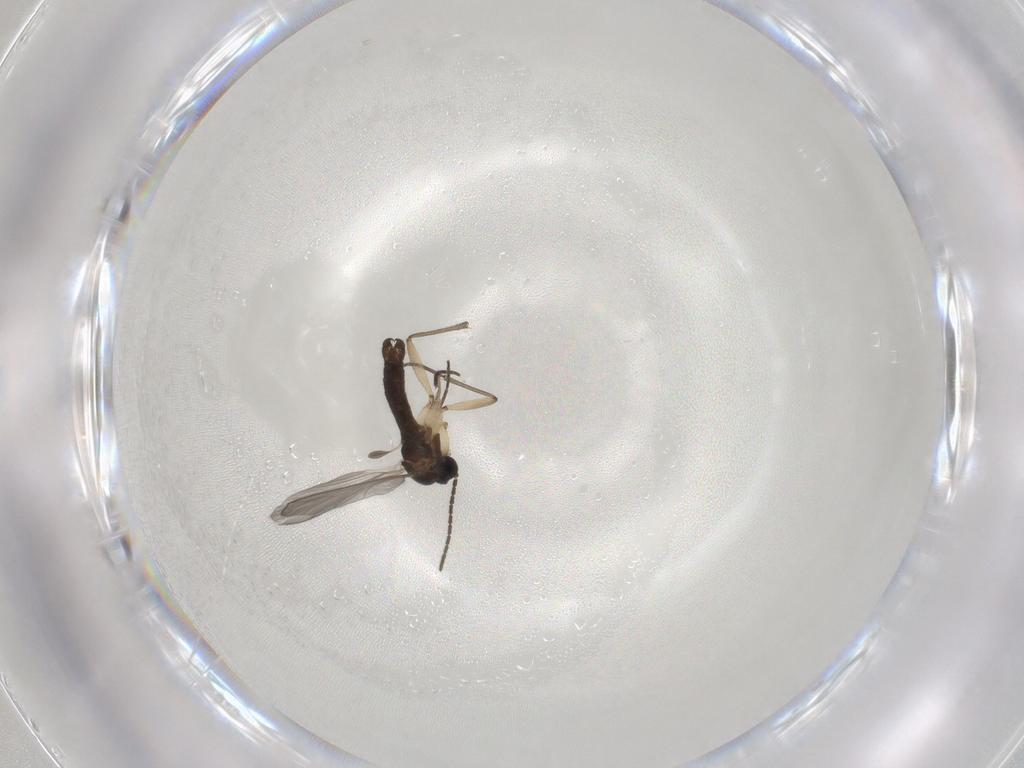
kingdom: Animalia
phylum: Arthropoda
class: Insecta
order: Diptera
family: Sciaridae
